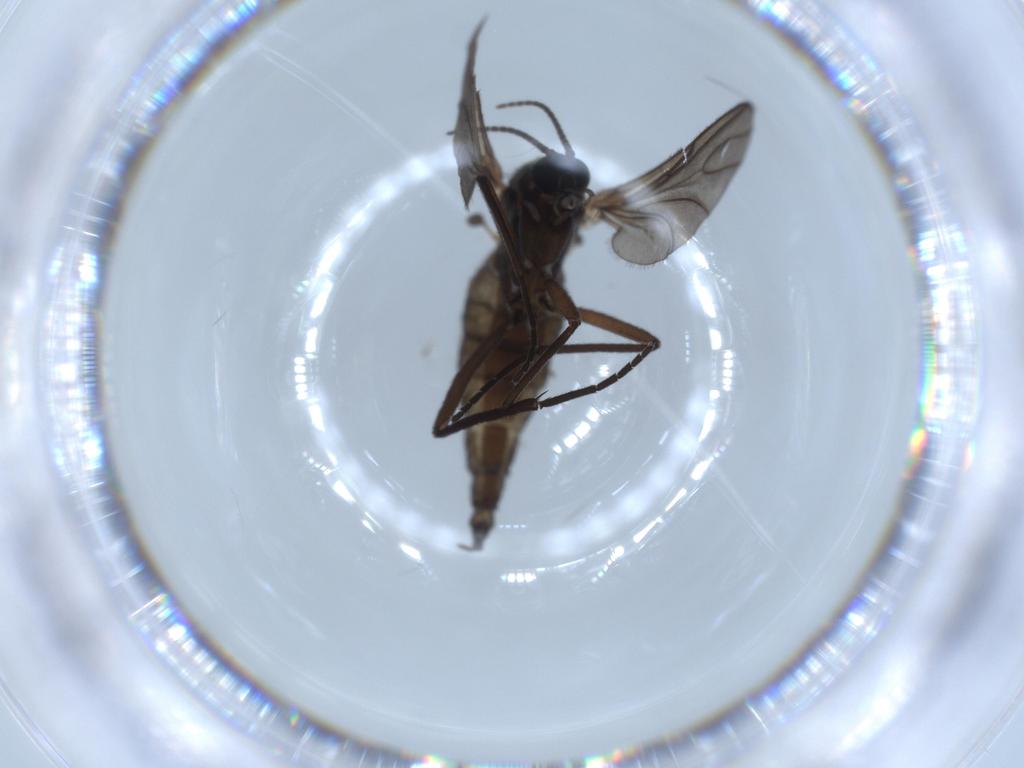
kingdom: Animalia
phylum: Arthropoda
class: Insecta
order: Diptera
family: Sciaridae
